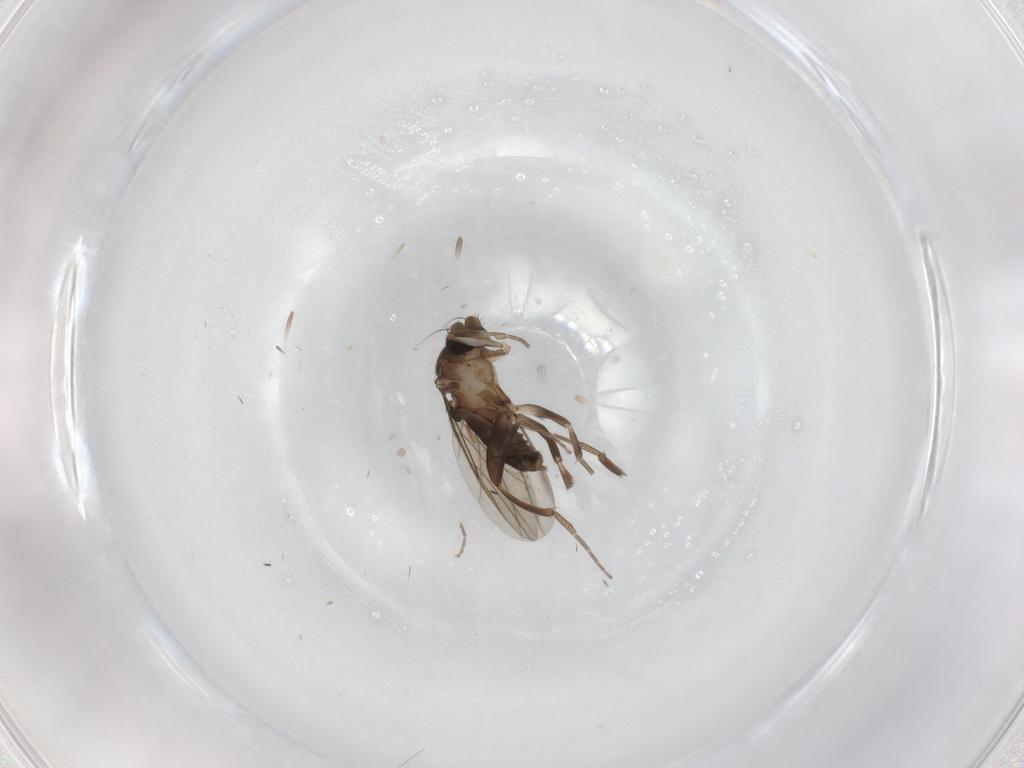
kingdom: Animalia
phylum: Arthropoda
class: Insecta
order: Diptera
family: Phoridae
